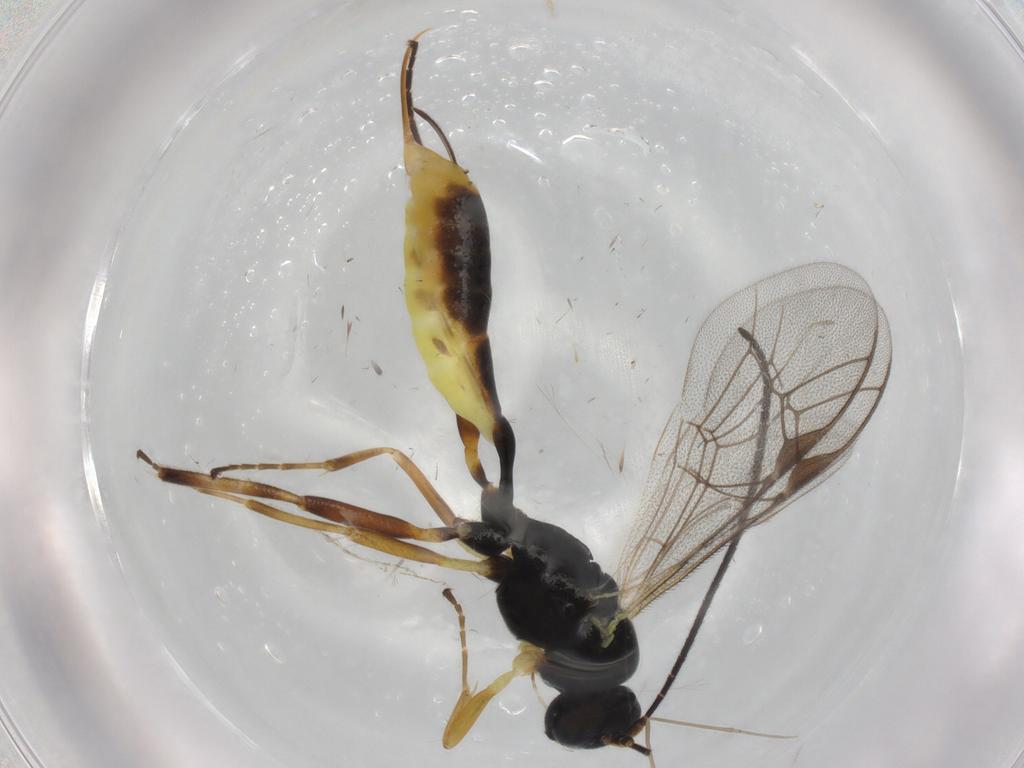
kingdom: Animalia
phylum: Arthropoda
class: Insecta
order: Hymenoptera
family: Ichneumonidae
